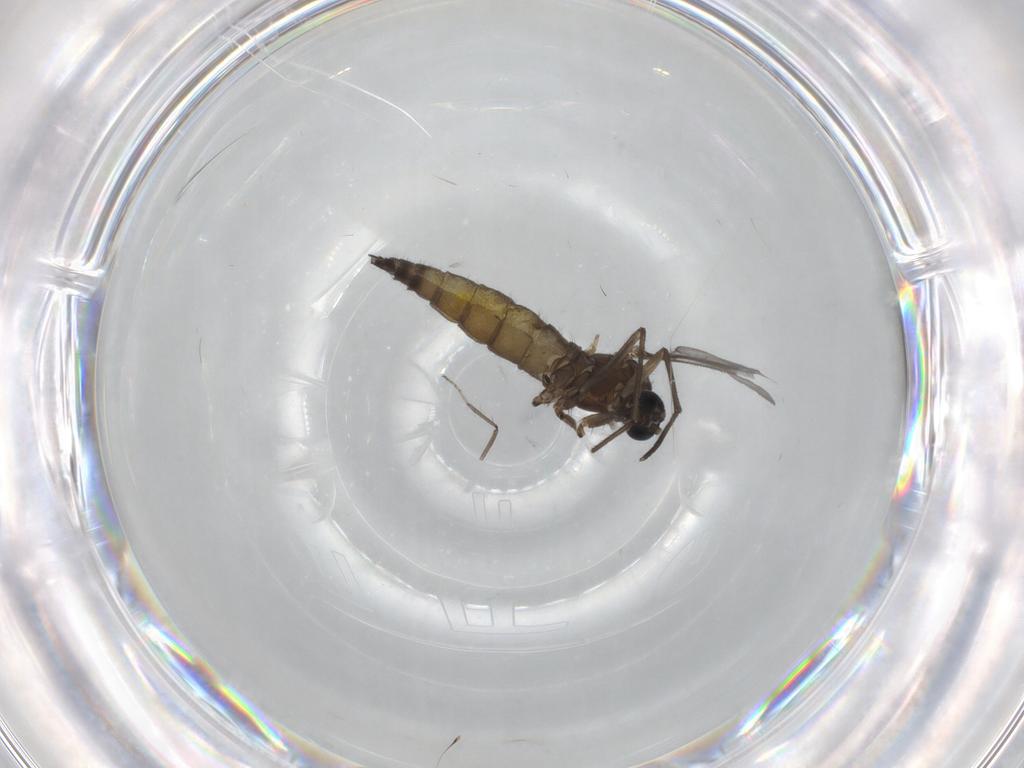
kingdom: Animalia
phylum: Arthropoda
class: Insecta
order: Diptera
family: Sciaridae
